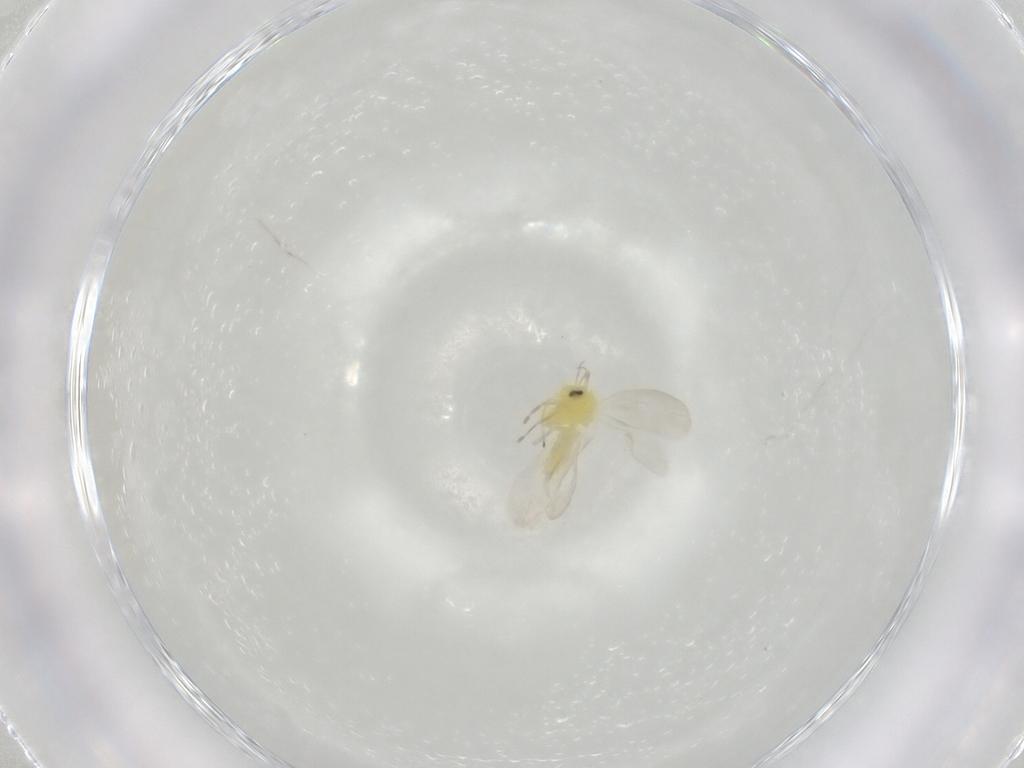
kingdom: Animalia
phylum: Arthropoda
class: Insecta
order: Hemiptera
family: Aleyrodidae
